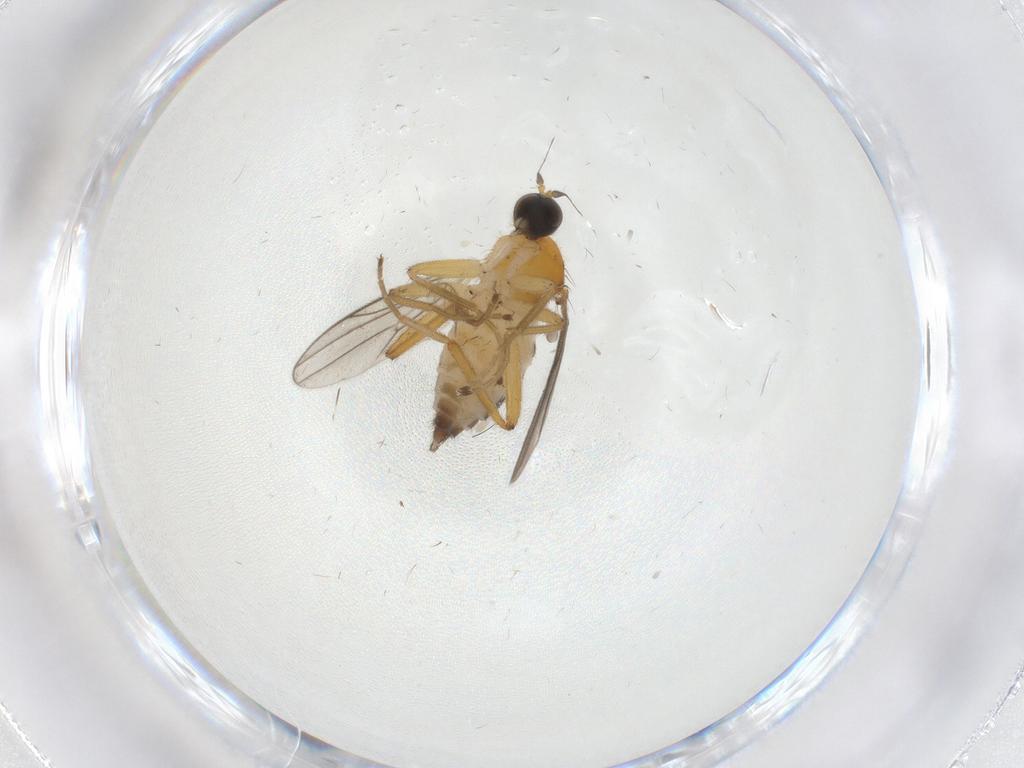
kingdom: Animalia
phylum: Arthropoda
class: Insecta
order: Diptera
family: Hybotidae
